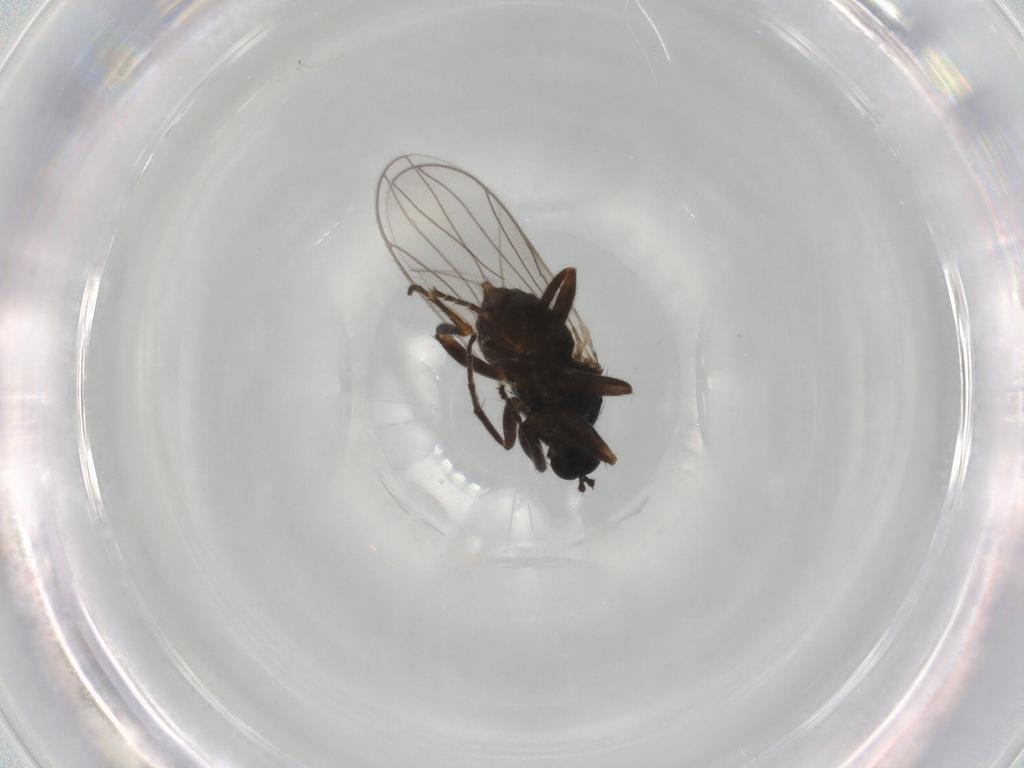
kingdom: Animalia
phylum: Arthropoda
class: Insecta
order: Diptera
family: Hybotidae
